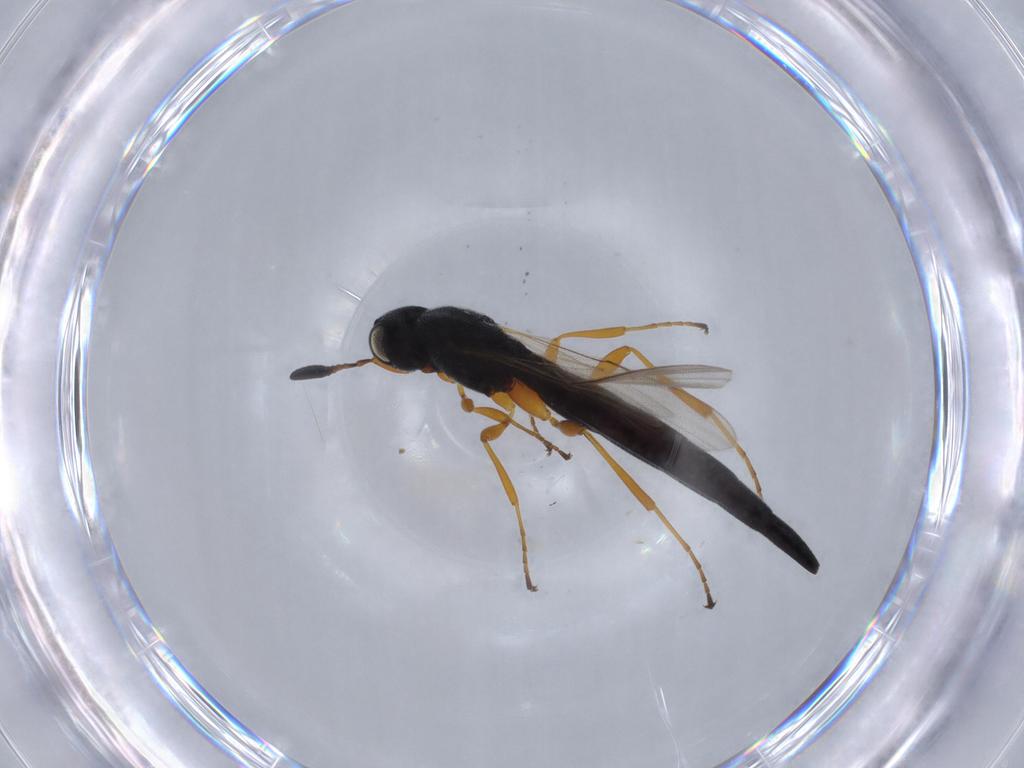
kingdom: Animalia
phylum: Arthropoda
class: Insecta
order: Hymenoptera
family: Scelionidae
